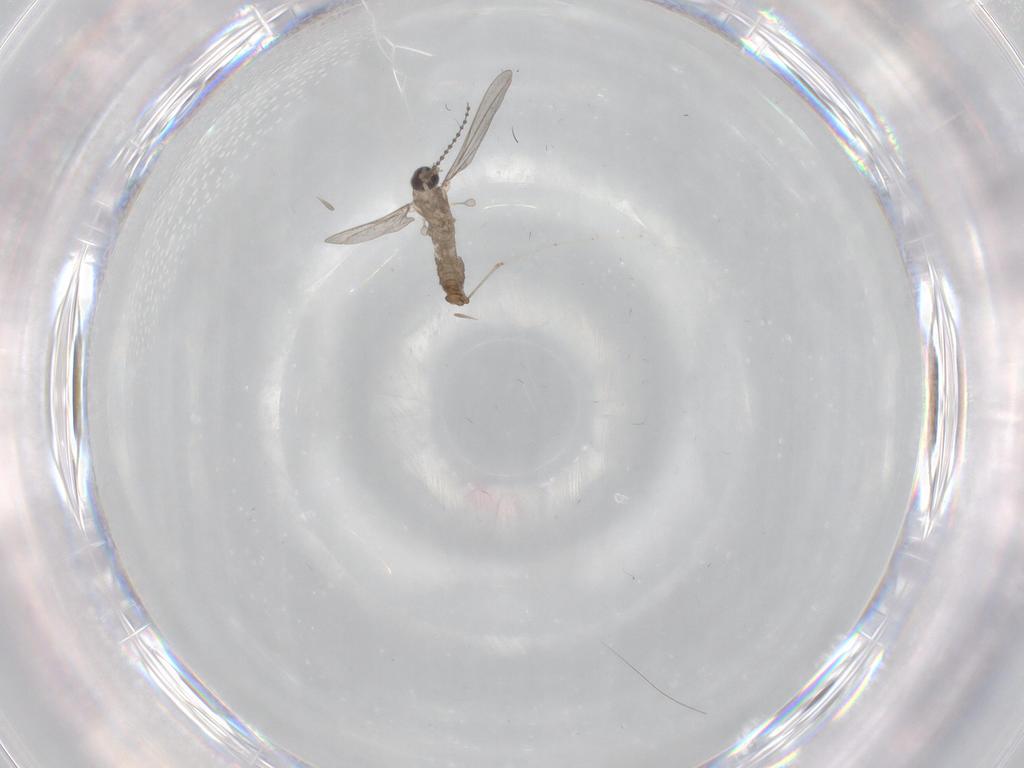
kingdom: Animalia
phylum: Arthropoda
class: Insecta
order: Diptera
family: Cecidomyiidae
